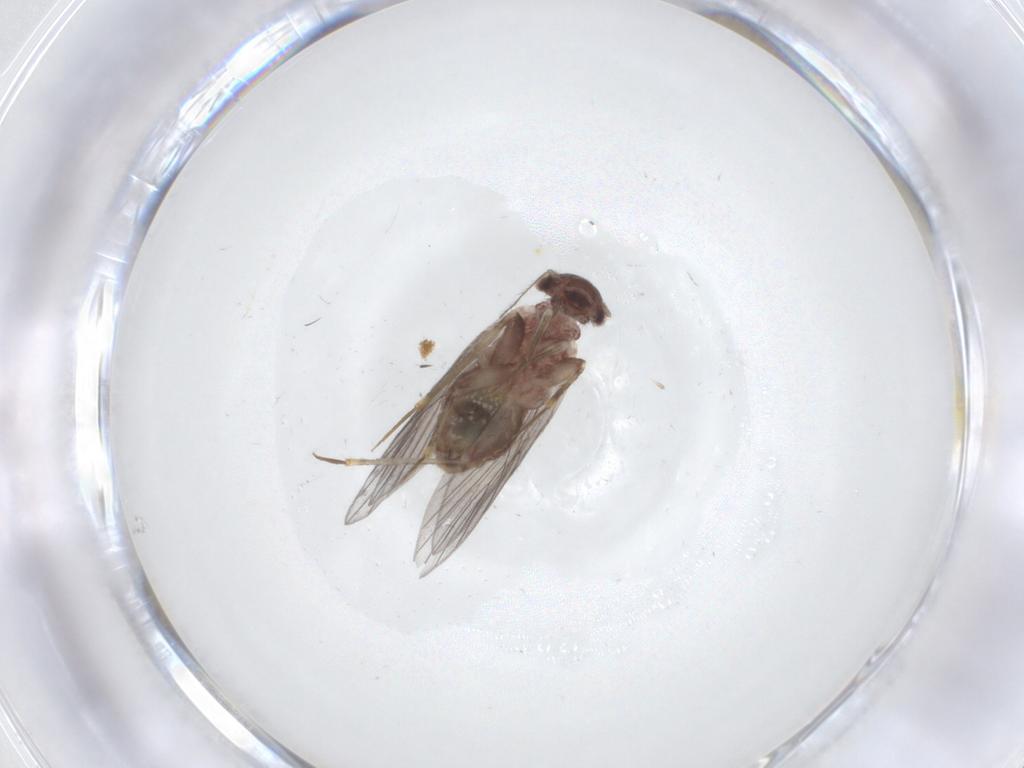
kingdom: Animalia
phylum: Arthropoda
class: Insecta
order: Psocodea
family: Lepidopsocidae
